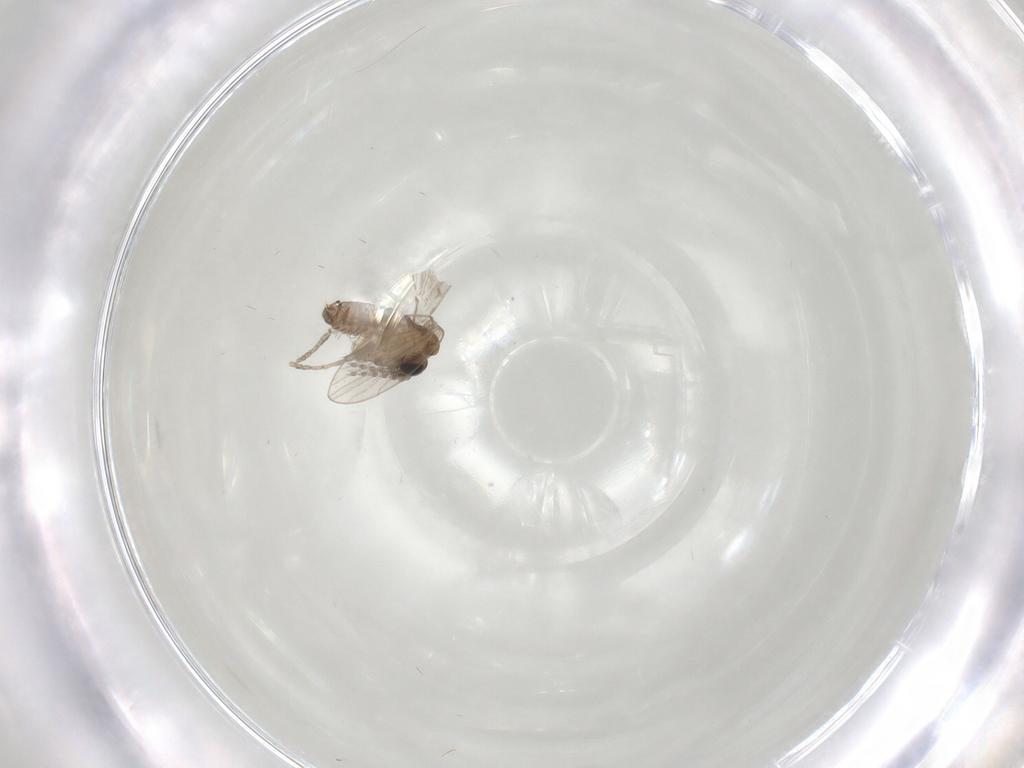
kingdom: Animalia
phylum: Arthropoda
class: Insecta
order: Diptera
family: Psychodidae
